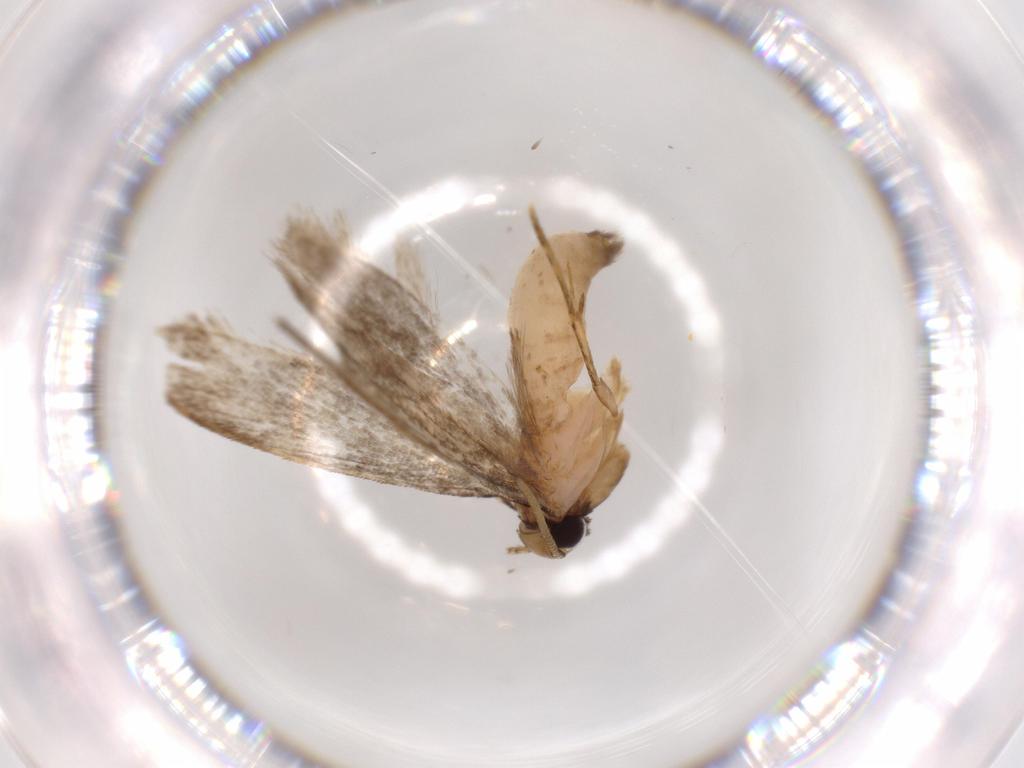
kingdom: Animalia
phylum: Arthropoda
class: Insecta
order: Lepidoptera
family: Tineidae
